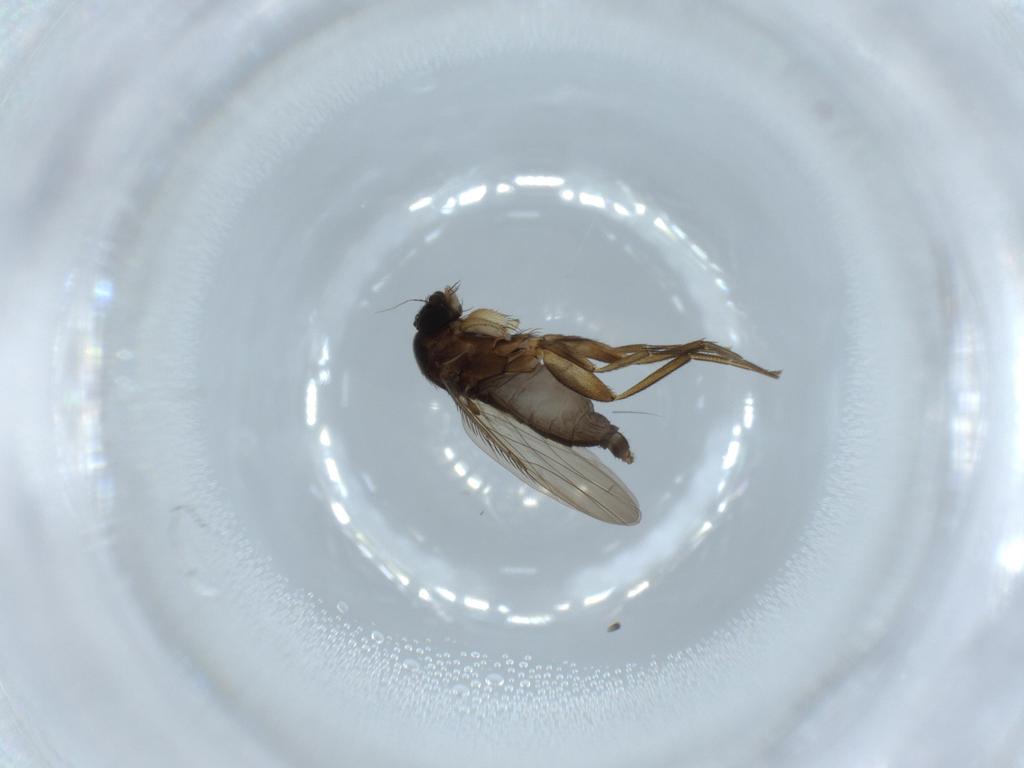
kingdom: Animalia
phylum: Arthropoda
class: Insecta
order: Diptera
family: Phoridae
